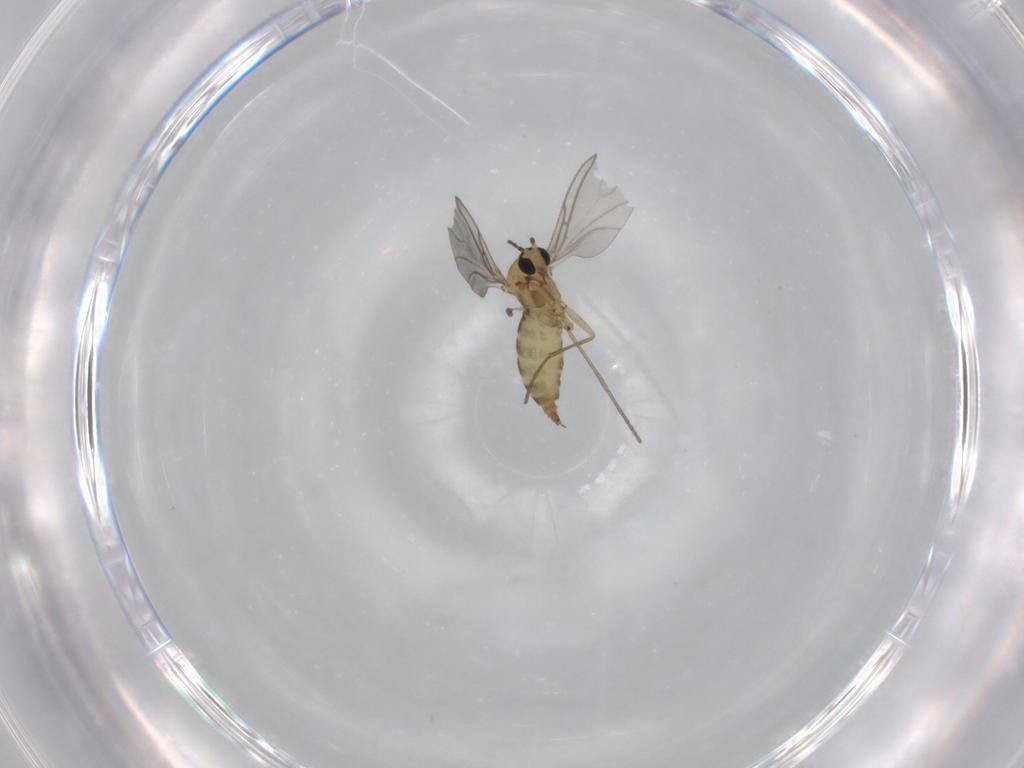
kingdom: Animalia
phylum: Arthropoda
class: Insecta
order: Diptera
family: Sciaridae
